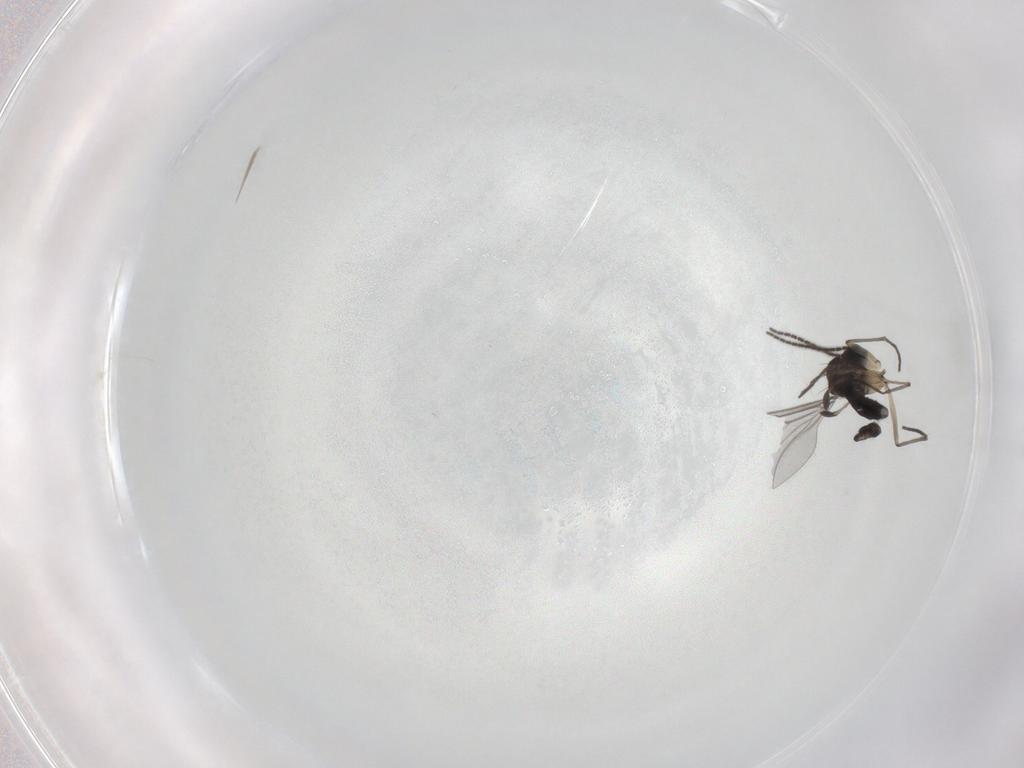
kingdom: Animalia
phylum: Arthropoda
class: Insecta
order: Diptera
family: Sciaridae
